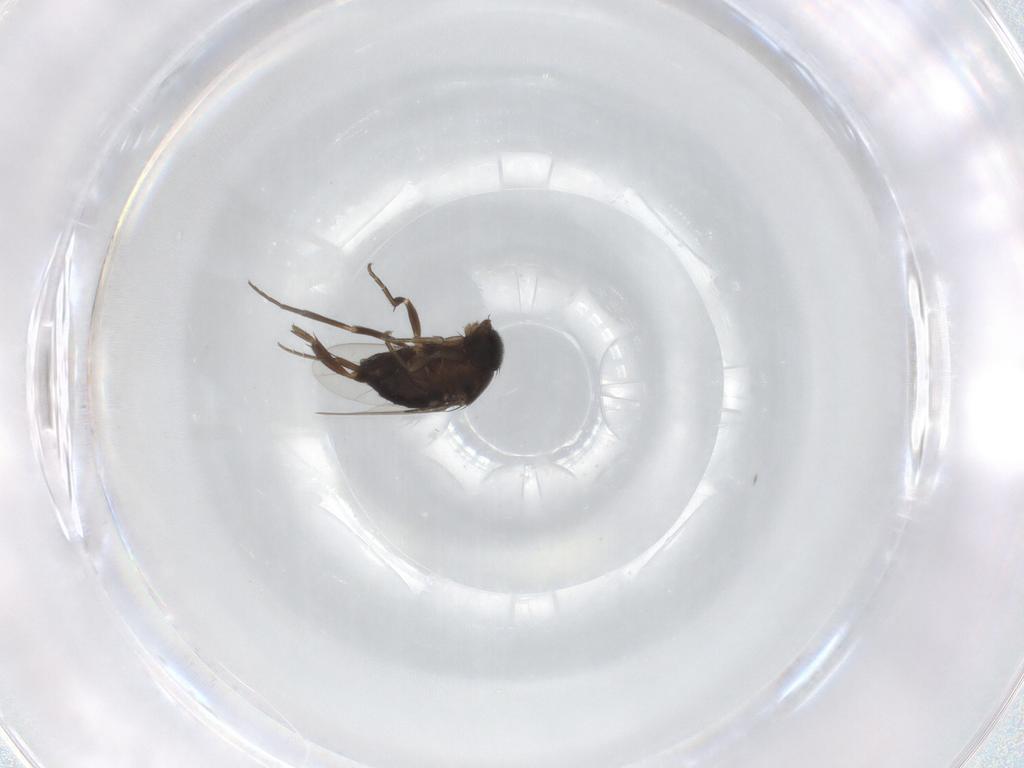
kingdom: Animalia
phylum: Arthropoda
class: Insecta
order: Diptera
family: Phoridae
